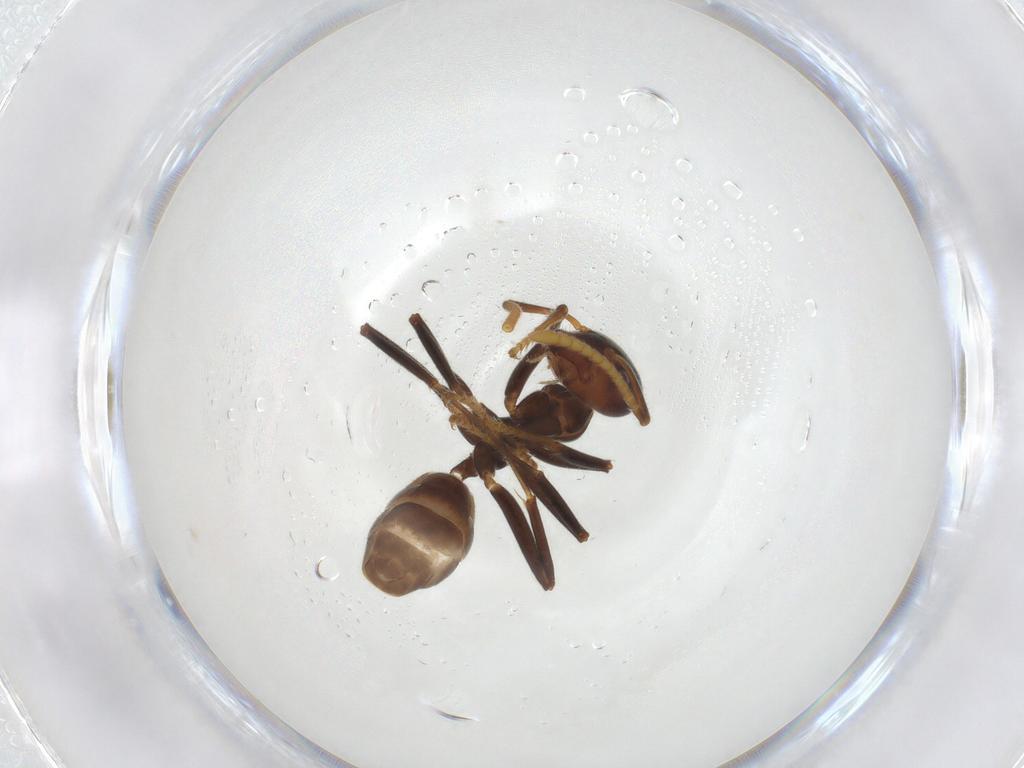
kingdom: Animalia
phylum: Arthropoda
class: Insecta
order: Hymenoptera
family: Formicidae
